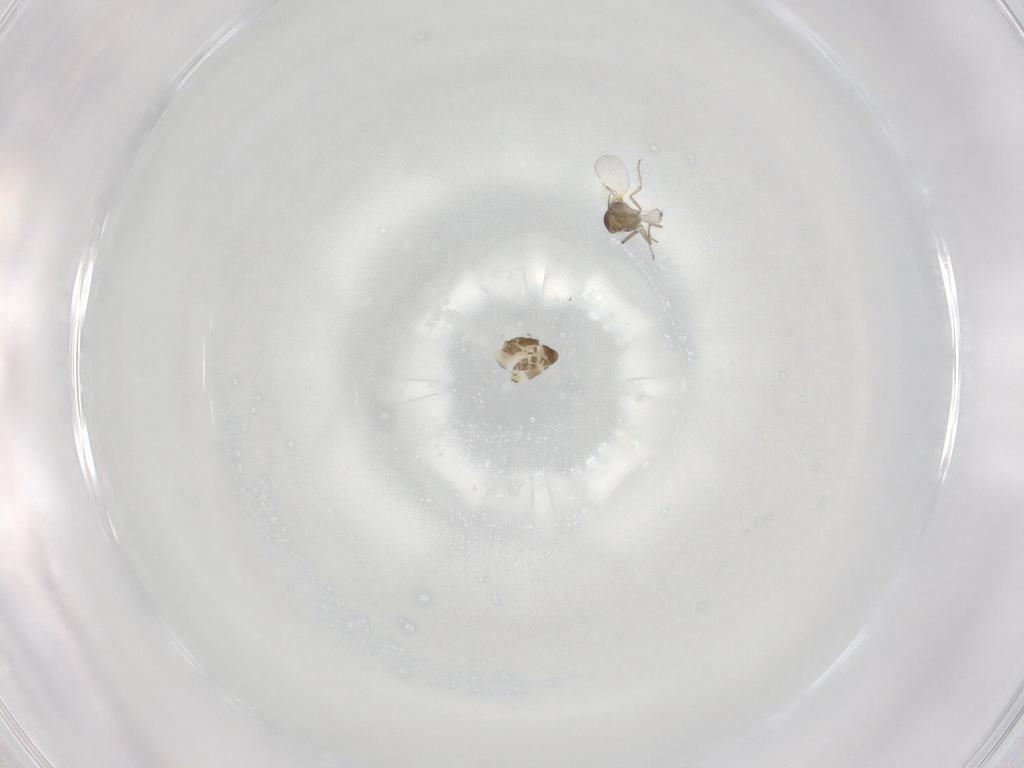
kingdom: Animalia
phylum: Arthropoda
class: Insecta
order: Diptera
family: Ceratopogonidae
